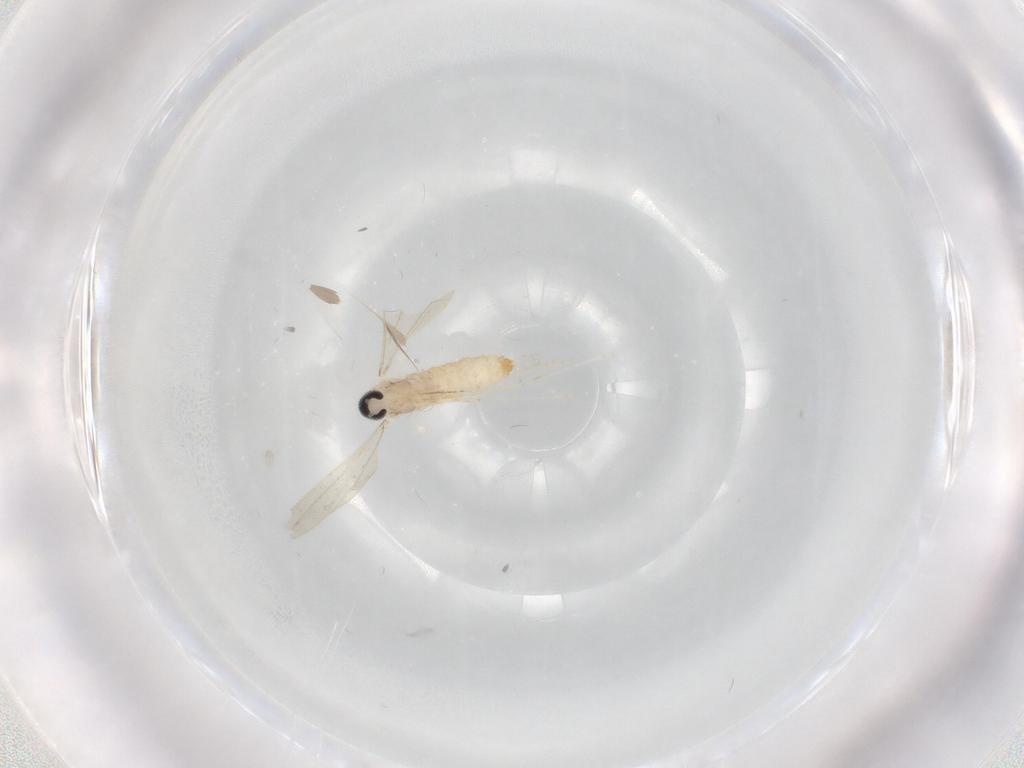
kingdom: Animalia
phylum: Arthropoda
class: Insecta
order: Diptera
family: Cecidomyiidae
